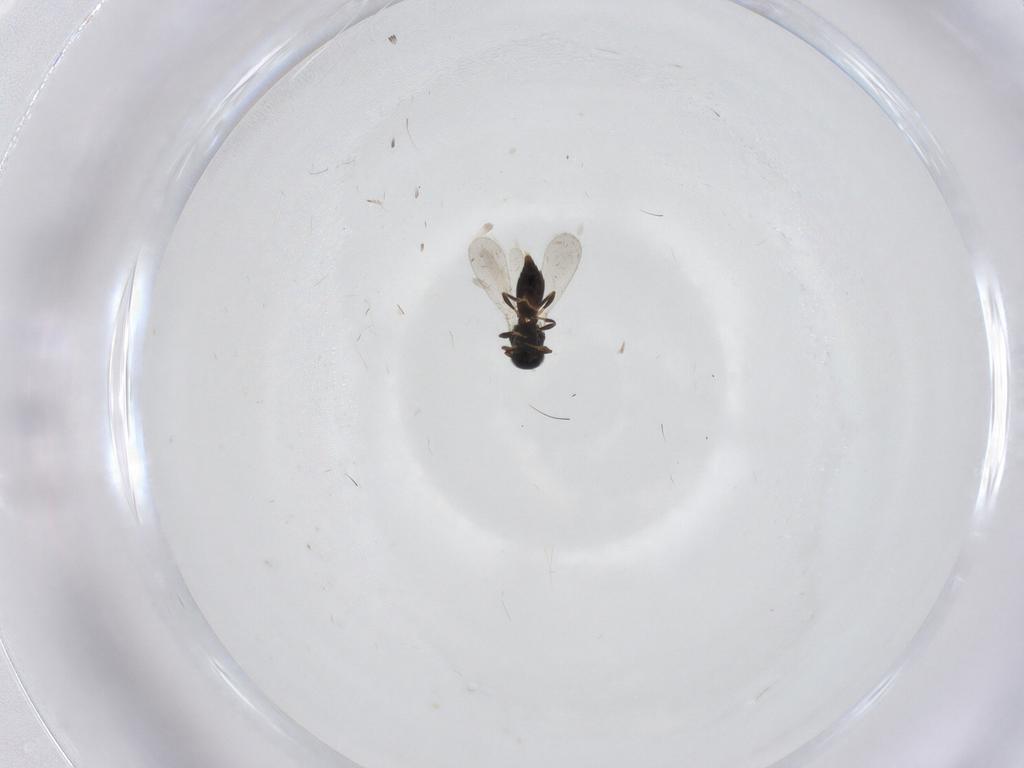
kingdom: Animalia
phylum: Arthropoda
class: Insecta
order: Hymenoptera
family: Platygastridae
